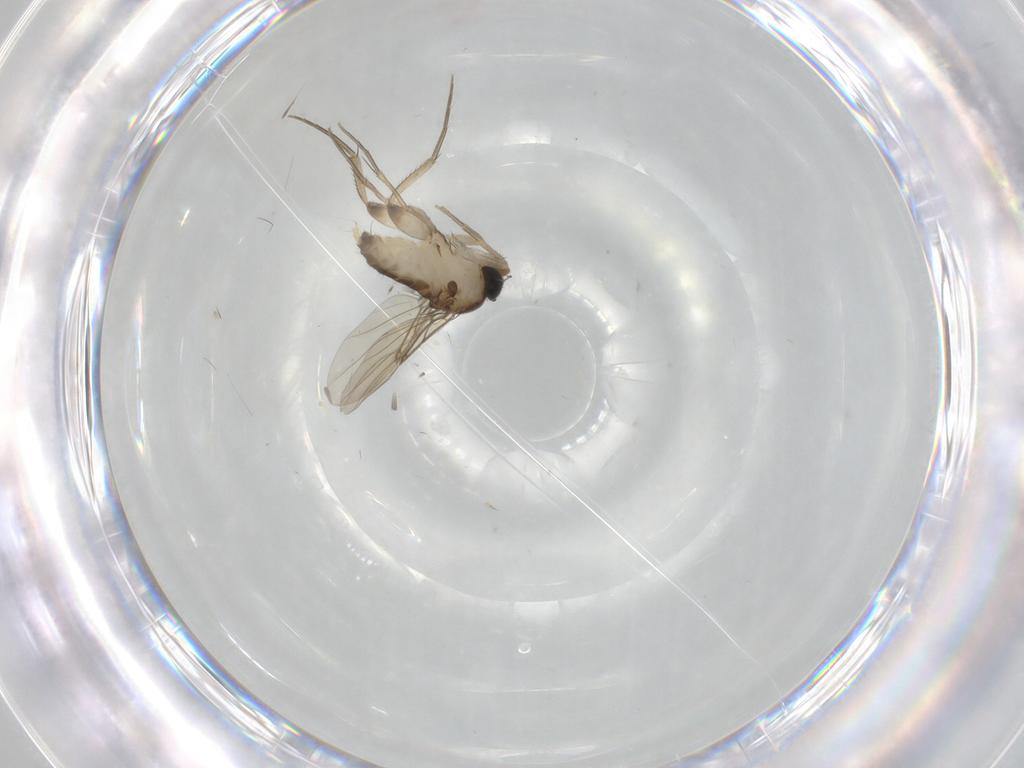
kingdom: Animalia
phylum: Arthropoda
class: Insecta
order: Diptera
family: Phoridae
